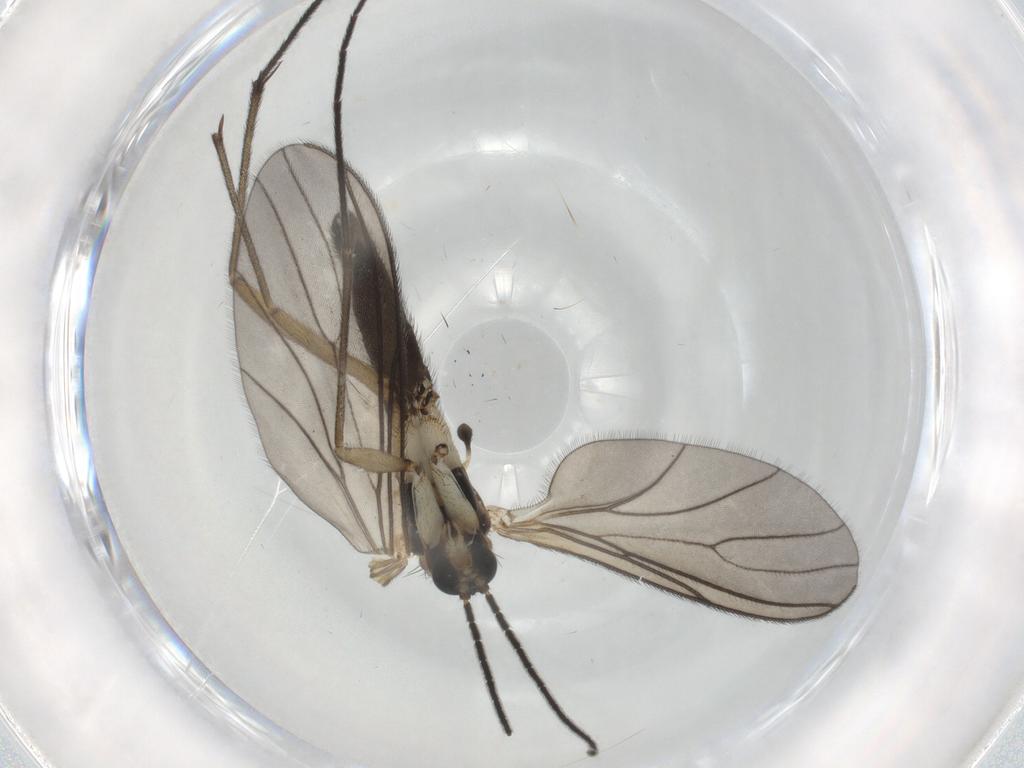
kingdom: Animalia
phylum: Arthropoda
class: Insecta
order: Diptera
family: Sciaridae
